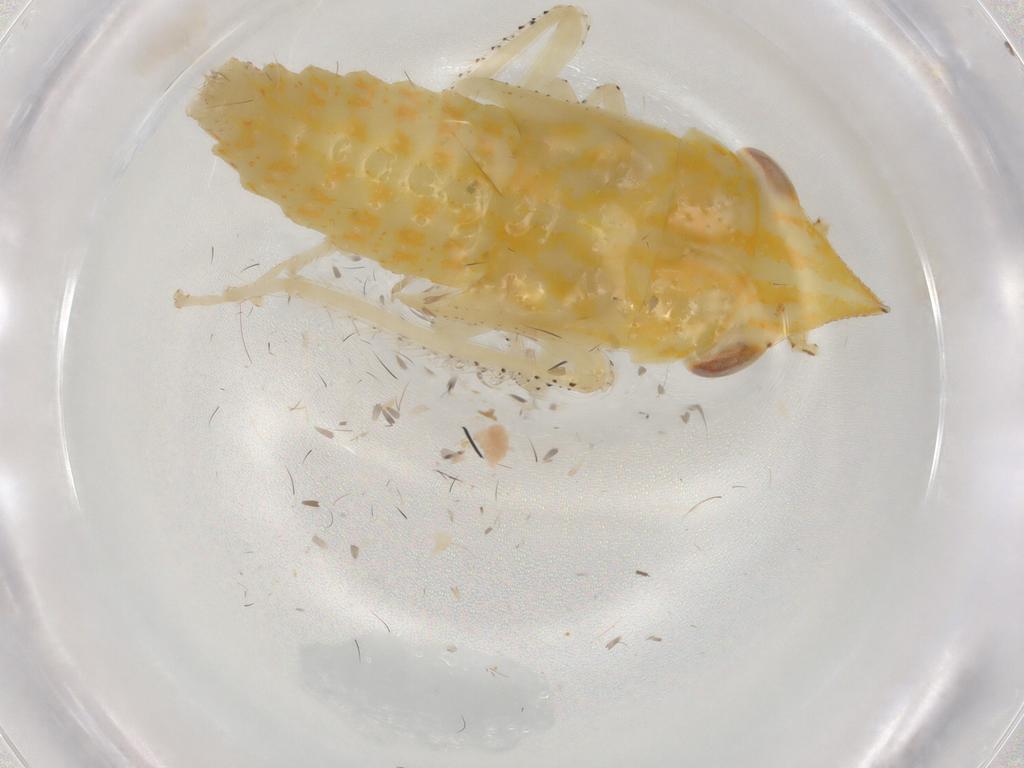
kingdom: Animalia
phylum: Arthropoda
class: Insecta
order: Hemiptera
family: Cicadellidae
